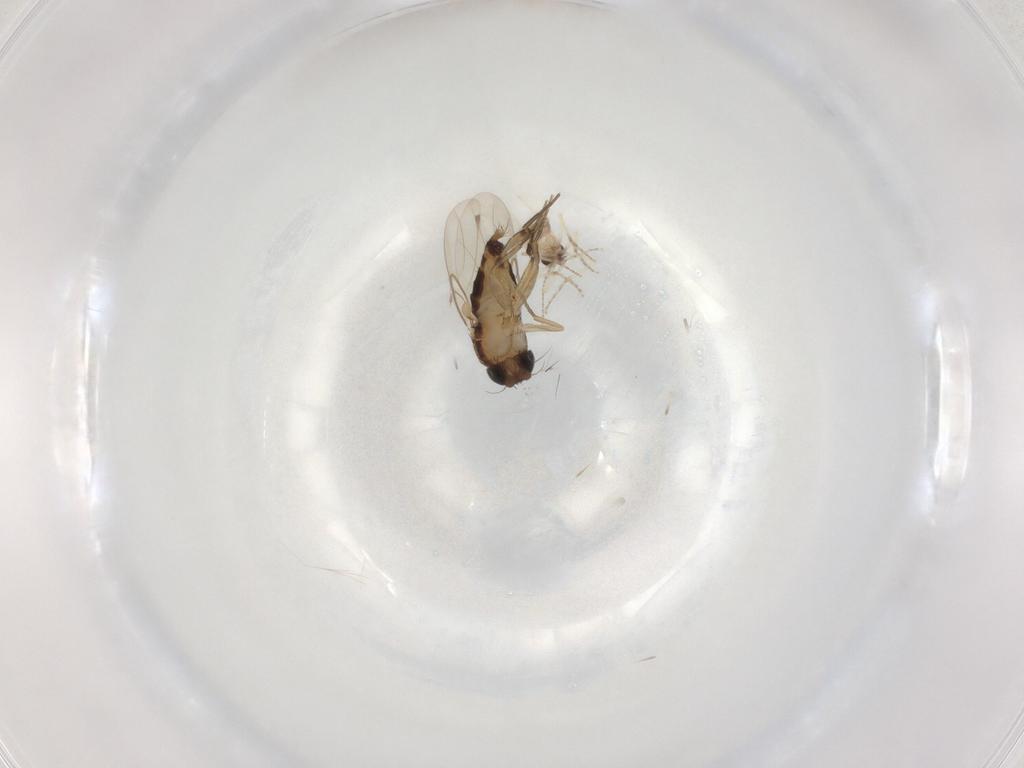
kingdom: Animalia
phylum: Arthropoda
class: Insecta
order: Diptera
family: Phoridae
